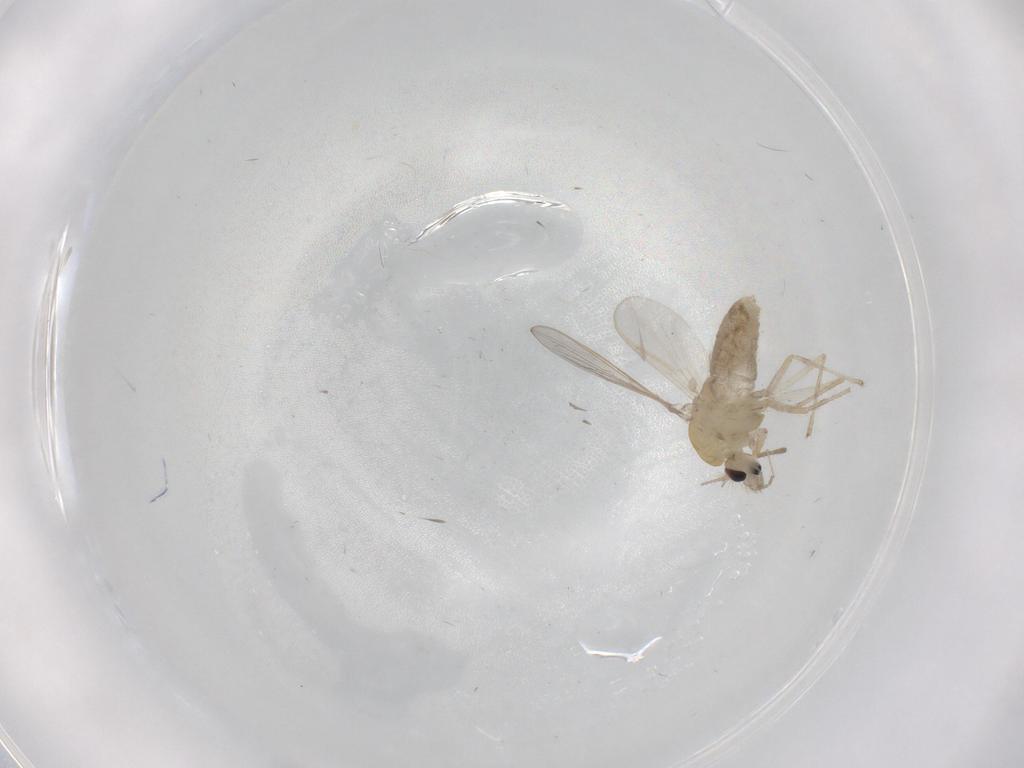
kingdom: Animalia
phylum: Arthropoda
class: Insecta
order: Diptera
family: Chironomidae
